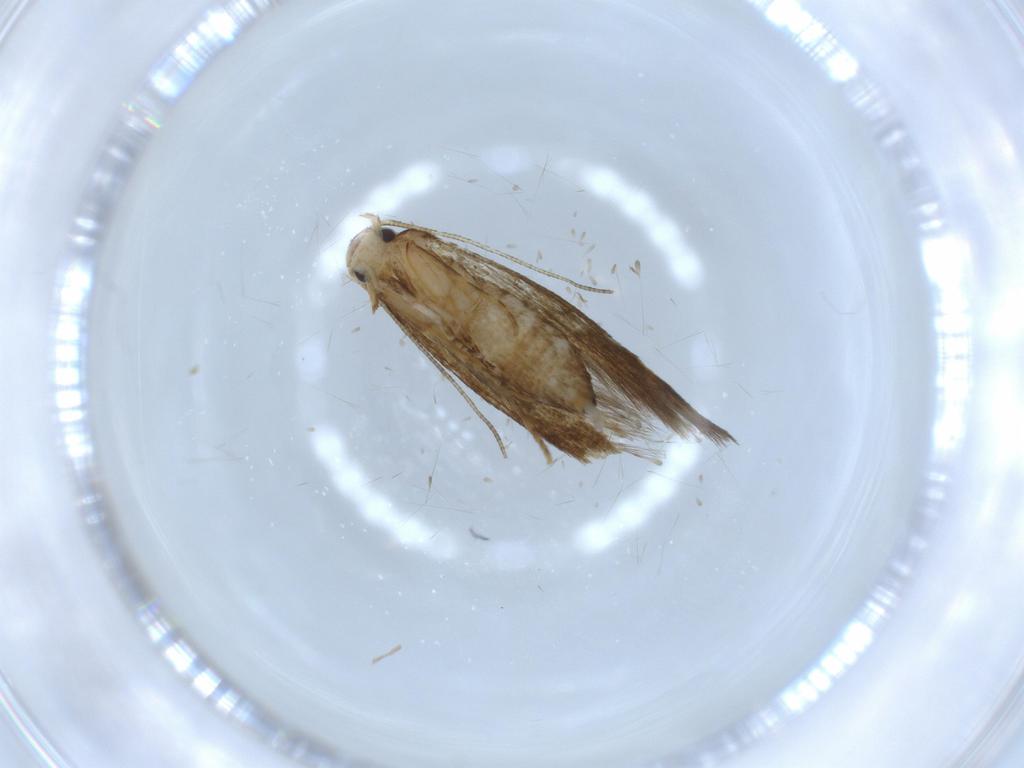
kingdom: Animalia
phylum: Arthropoda
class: Insecta
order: Lepidoptera
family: Tineidae
